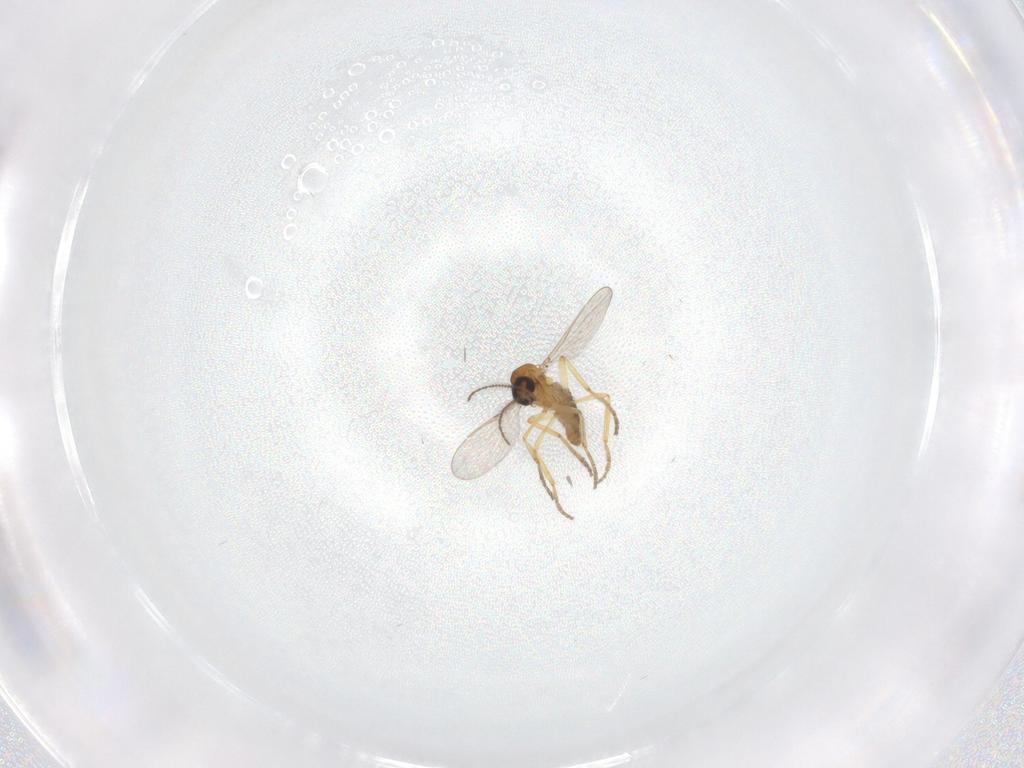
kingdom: Animalia
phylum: Arthropoda
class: Insecta
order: Diptera
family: Ceratopogonidae
